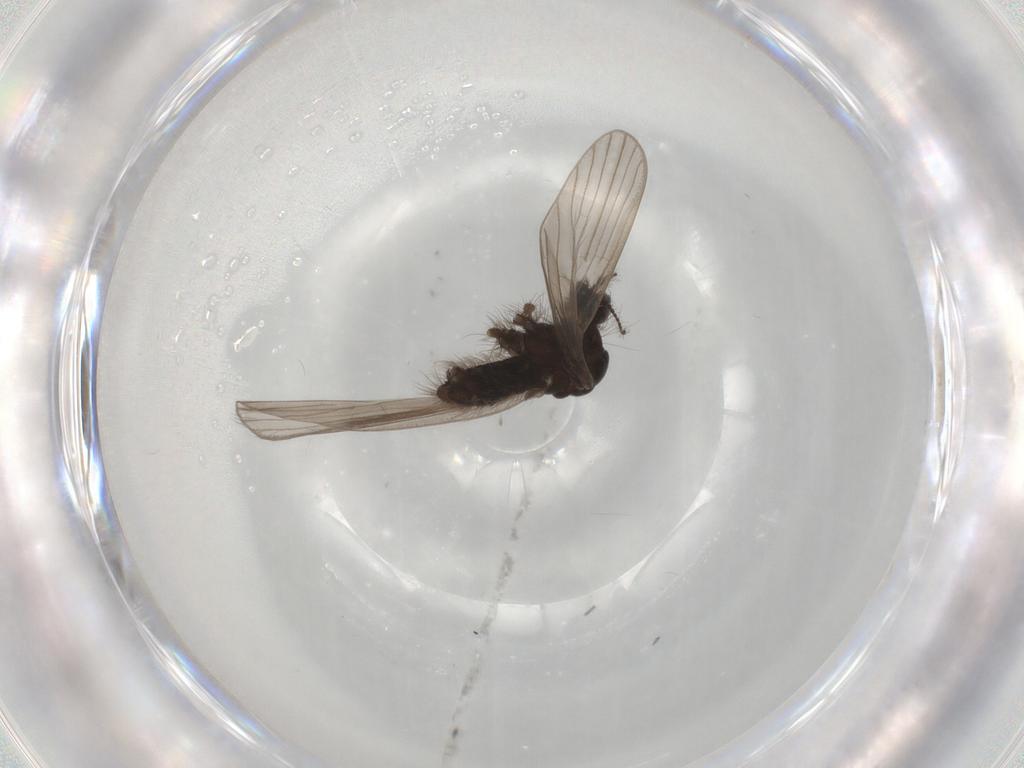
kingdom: Animalia
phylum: Arthropoda
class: Insecta
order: Diptera
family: Limoniidae
